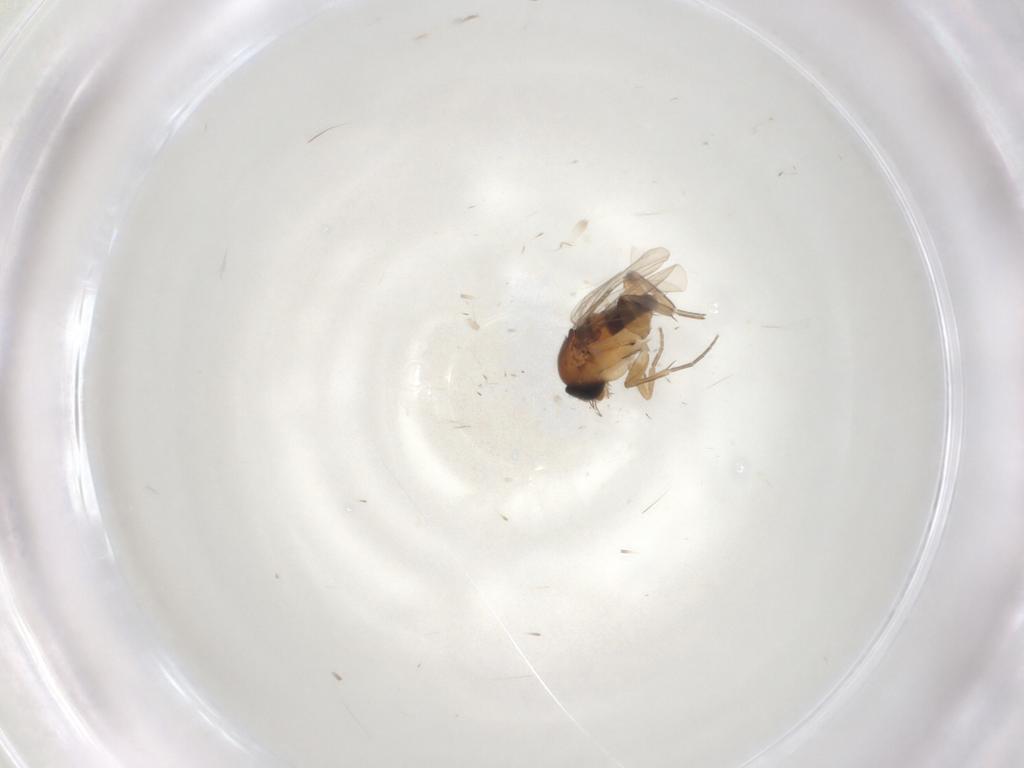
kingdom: Animalia
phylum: Arthropoda
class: Insecta
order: Diptera
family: Phoridae
